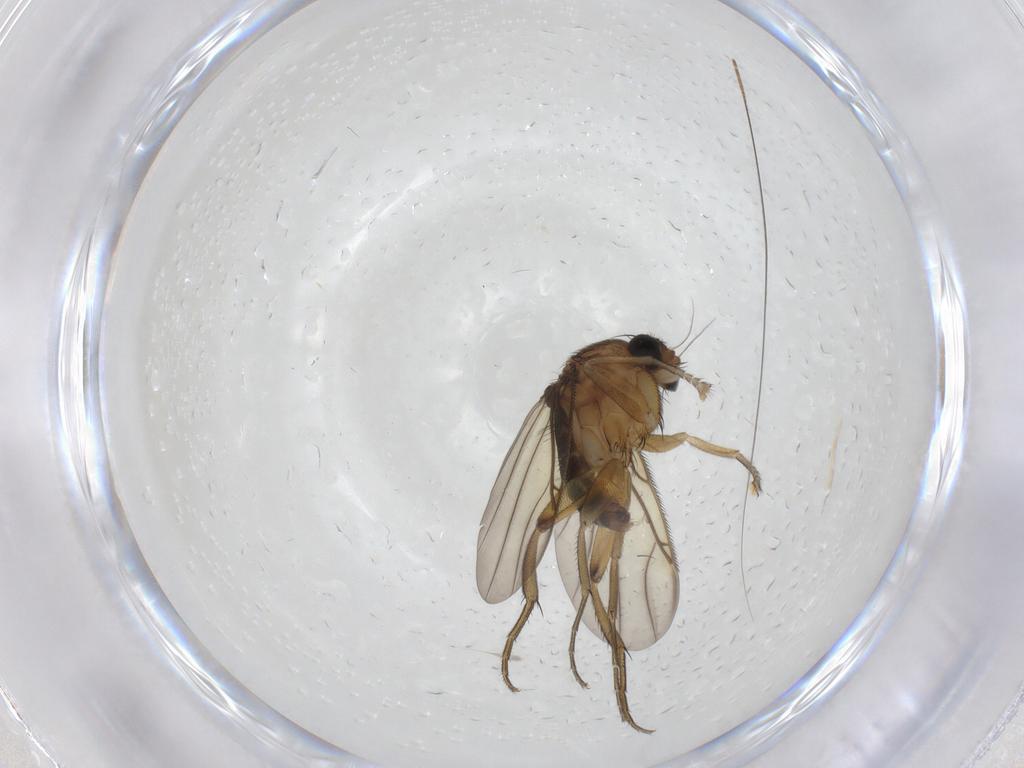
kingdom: Animalia
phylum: Arthropoda
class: Insecta
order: Diptera
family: Phoridae
